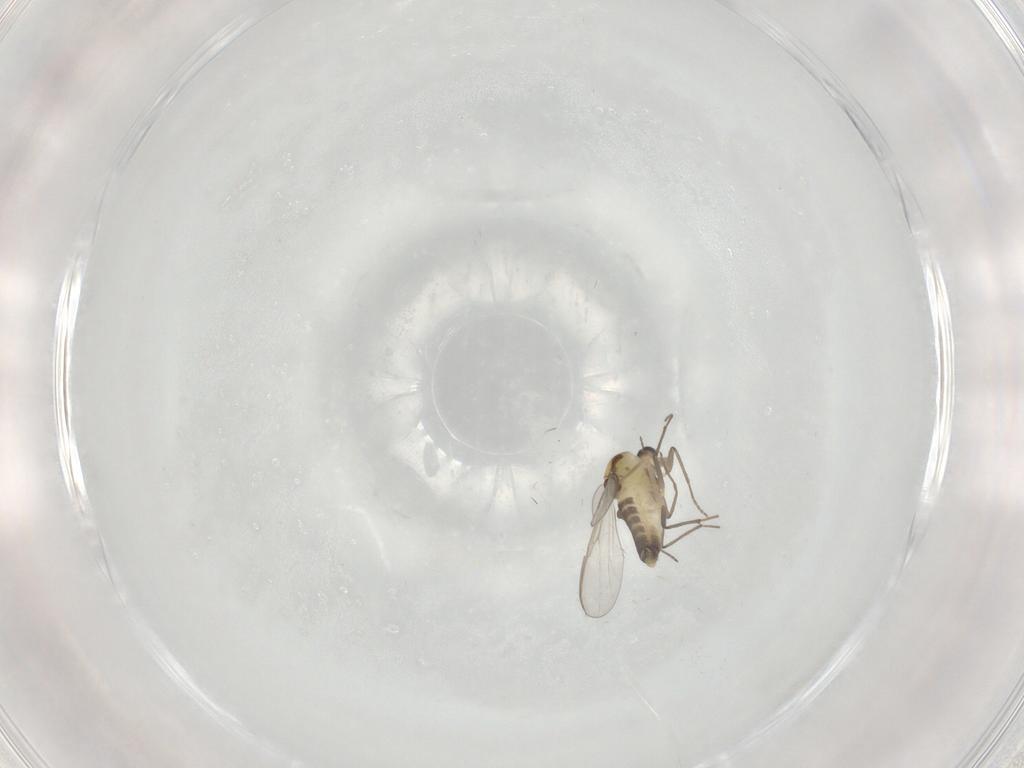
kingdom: Animalia
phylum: Arthropoda
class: Insecta
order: Diptera
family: Chironomidae
